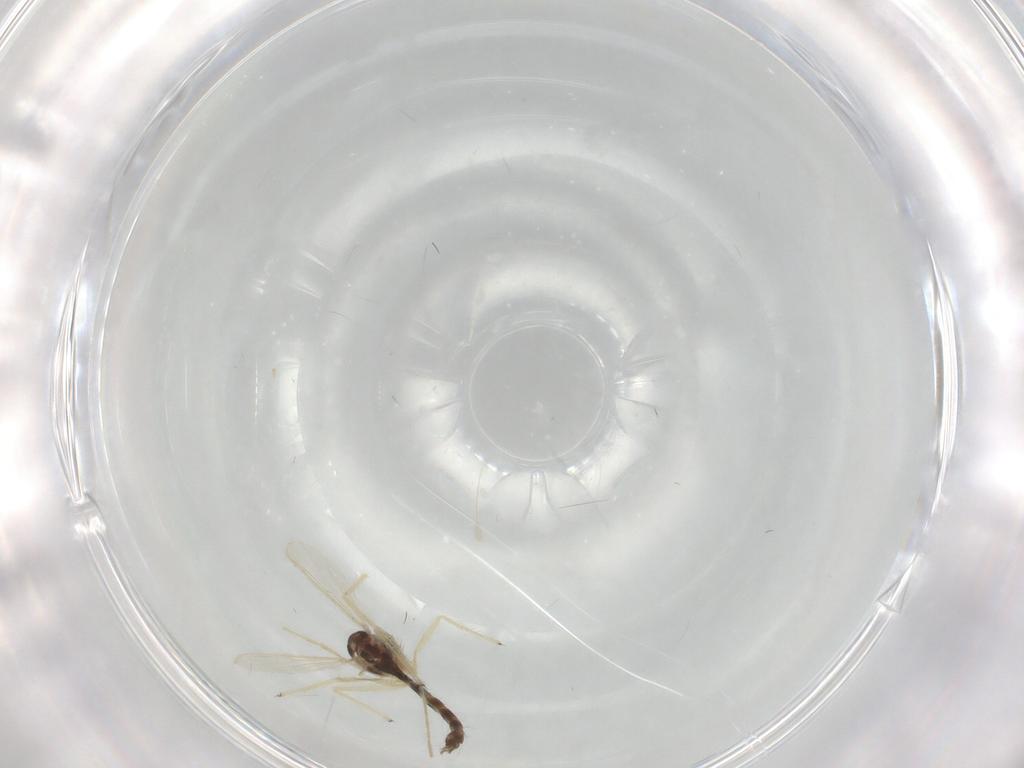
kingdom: Animalia
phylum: Arthropoda
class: Insecta
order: Diptera
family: Chironomidae
